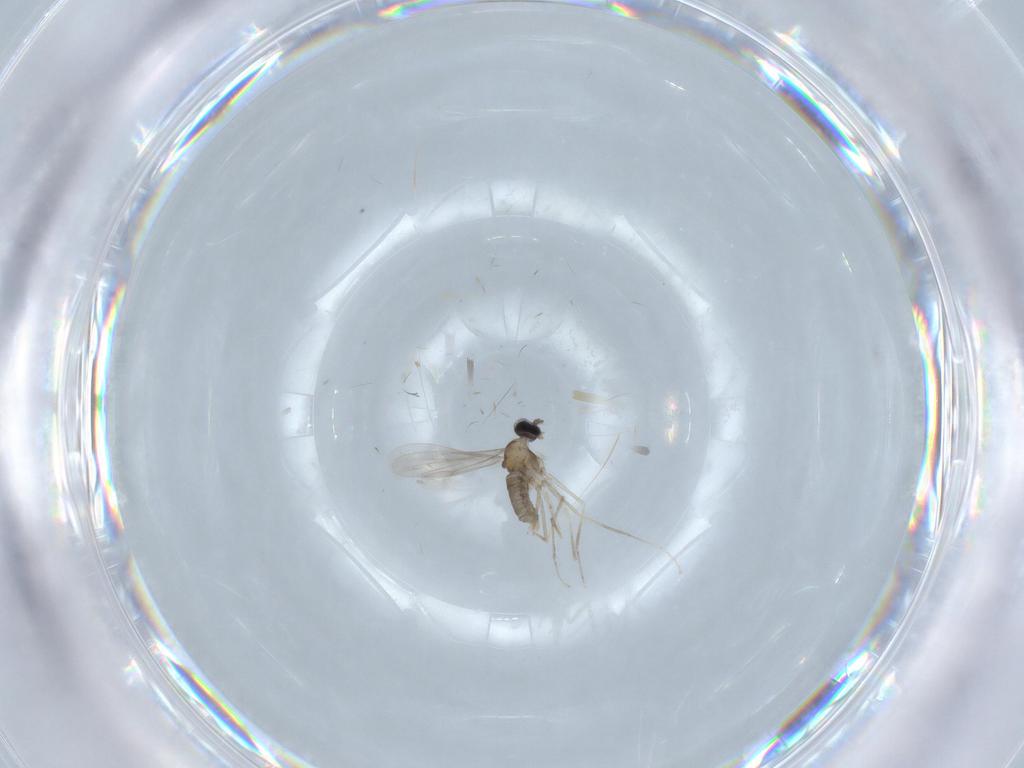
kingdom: Animalia
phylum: Arthropoda
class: Insecta
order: Diptera
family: Cecidomyiidae
